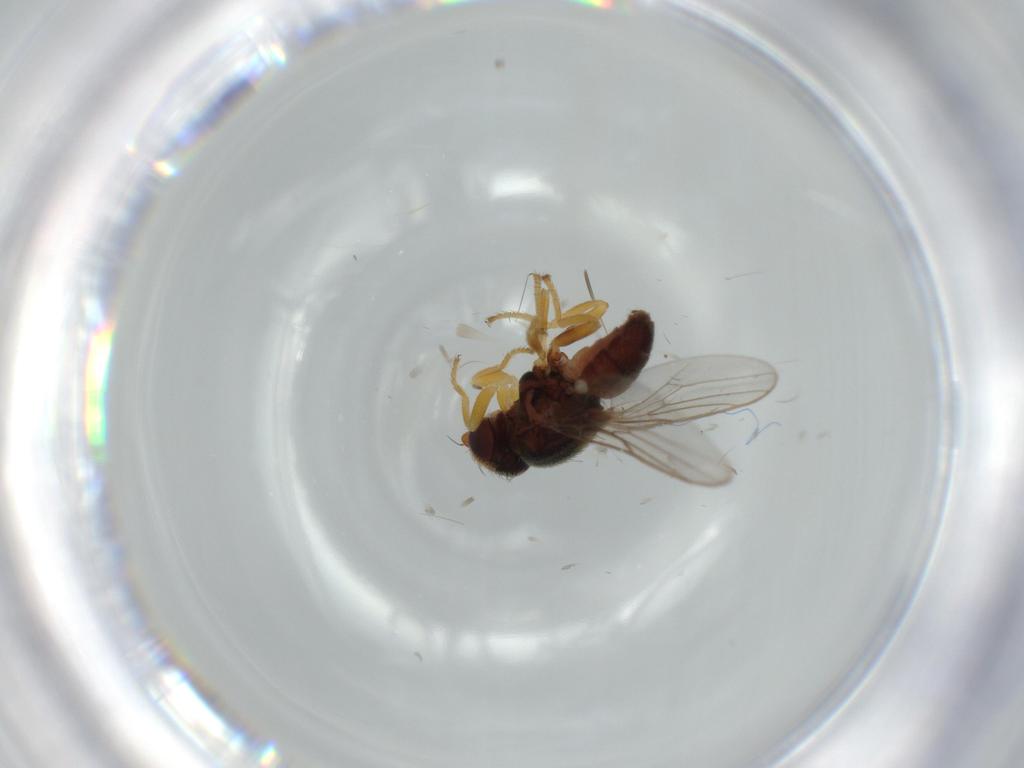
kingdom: Animalia
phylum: Arthropoda
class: Insecta
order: Diptera
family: Chloropidae
